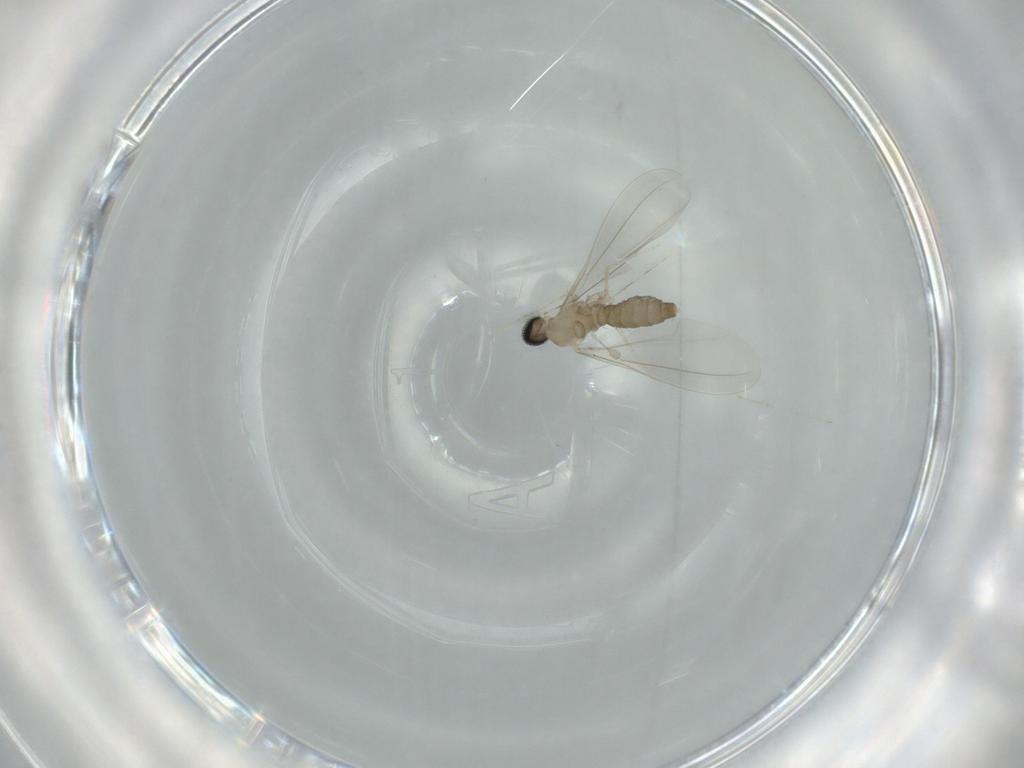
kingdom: Animalia
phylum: Arthropoda
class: Insecta
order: Diptera
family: Cecidomyiidae
